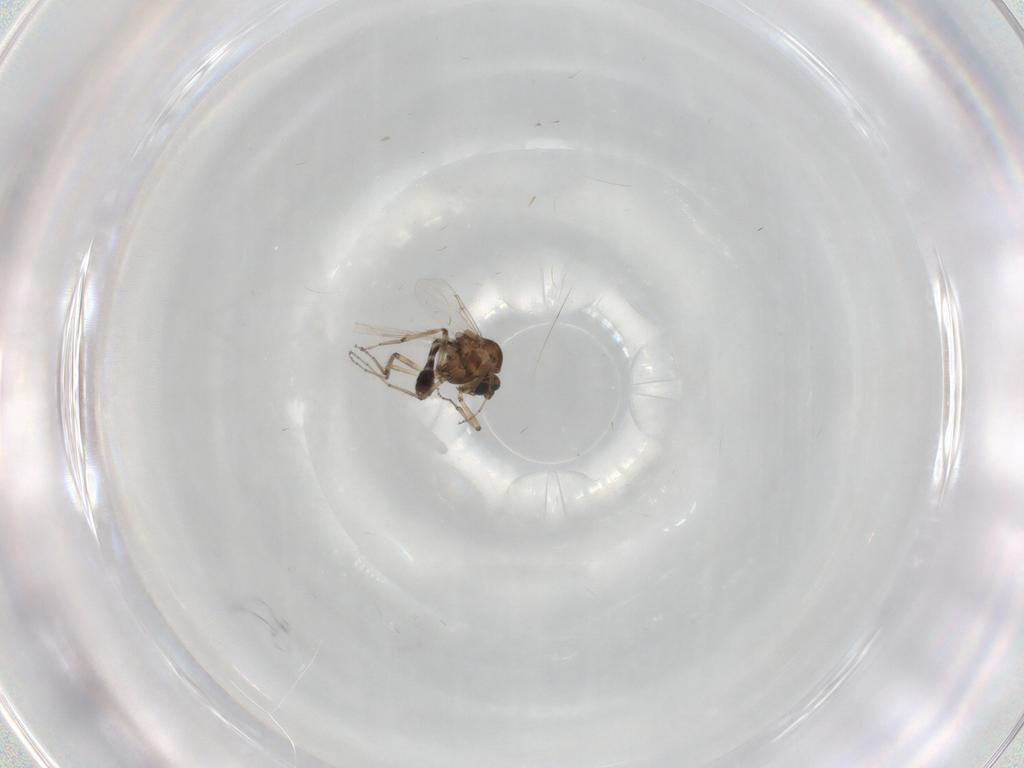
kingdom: Animalia
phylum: Arthropoda
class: Insecta
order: Diptera
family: Ceratopogonidae
